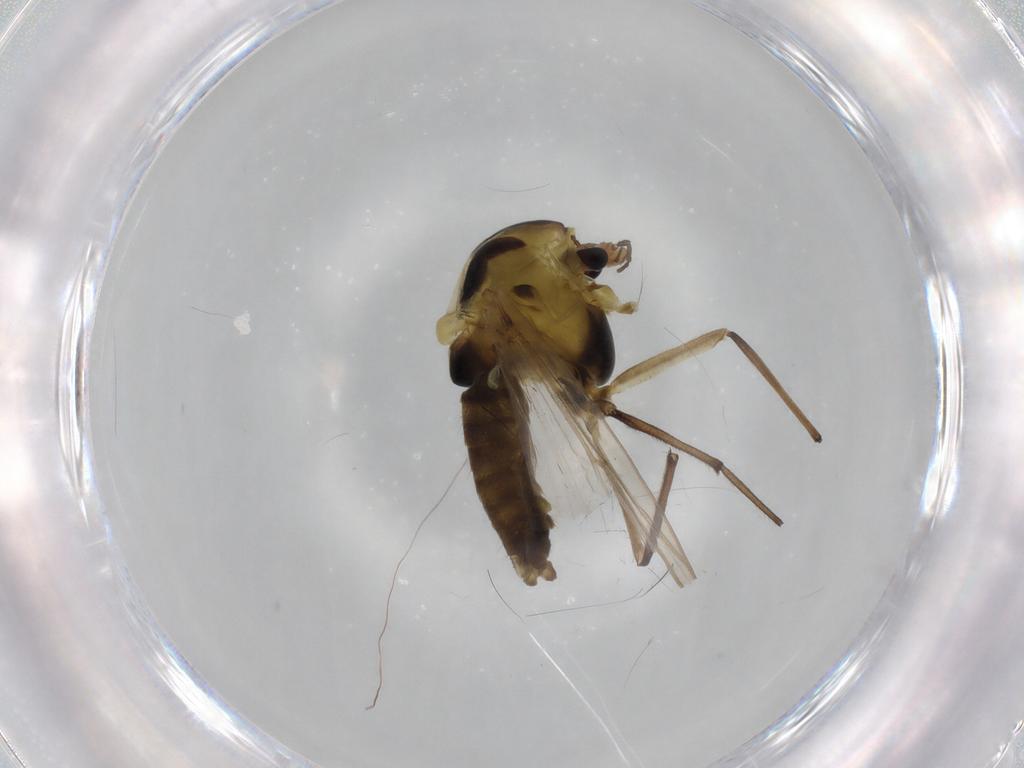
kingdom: Animalia
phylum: Arthropoda
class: Insecta
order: Diptera
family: Chironomidae
